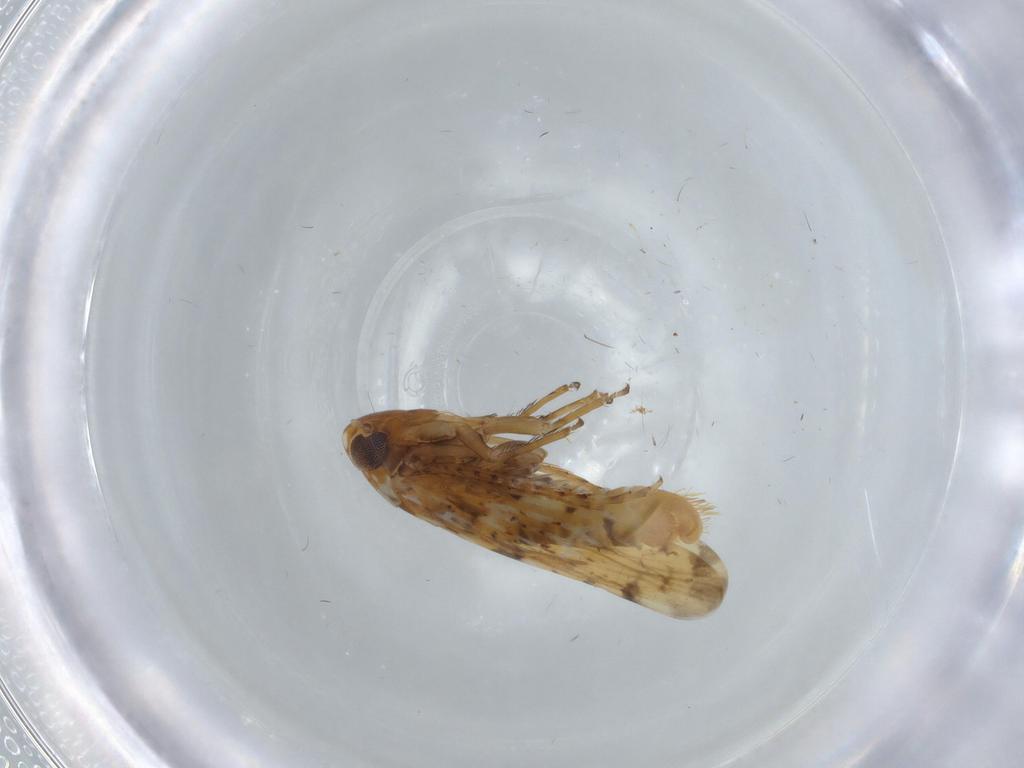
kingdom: Animalia
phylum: Arthropoda
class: Insecta
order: Hemiptera
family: Cicadellidae
